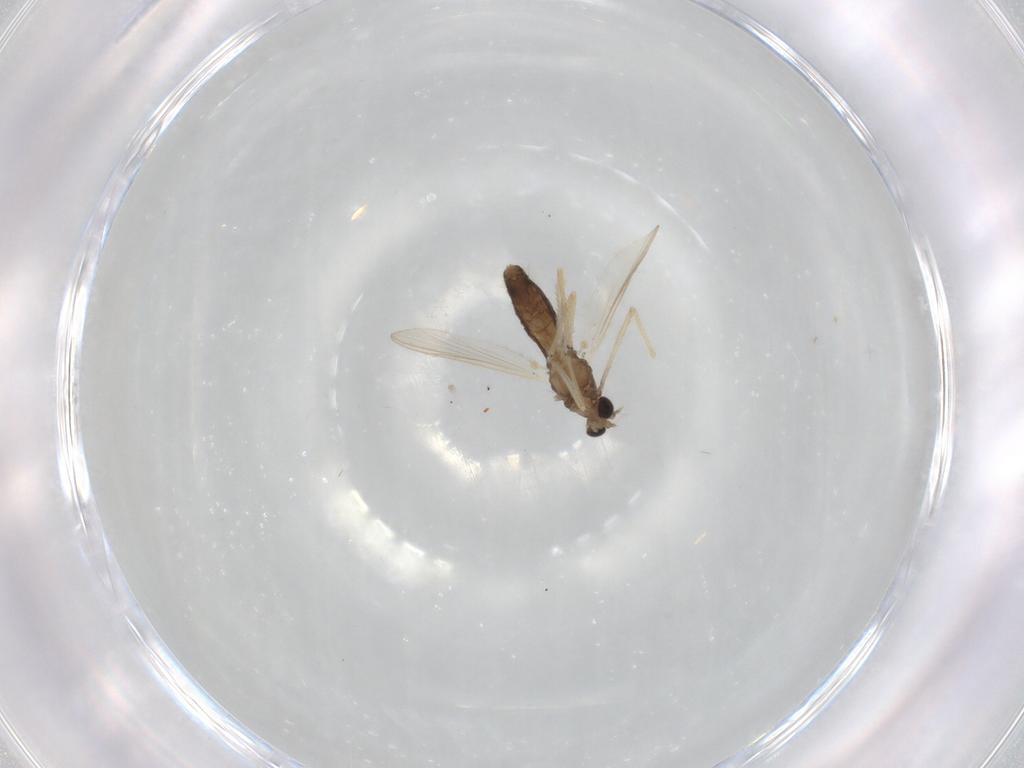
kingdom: Animalia
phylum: Arthropoda
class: Insecta
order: Diptera
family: Chironomidae
